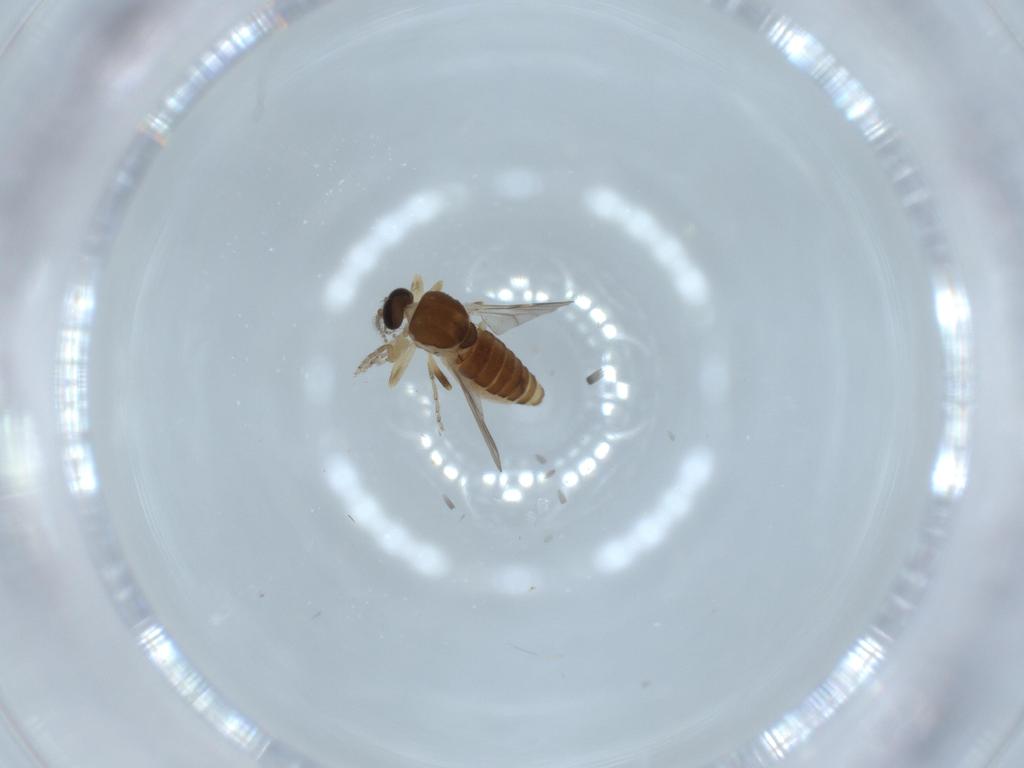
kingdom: Animalia
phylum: Arthropoda
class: Insecta
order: Diptera
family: Ceratopogonidae
